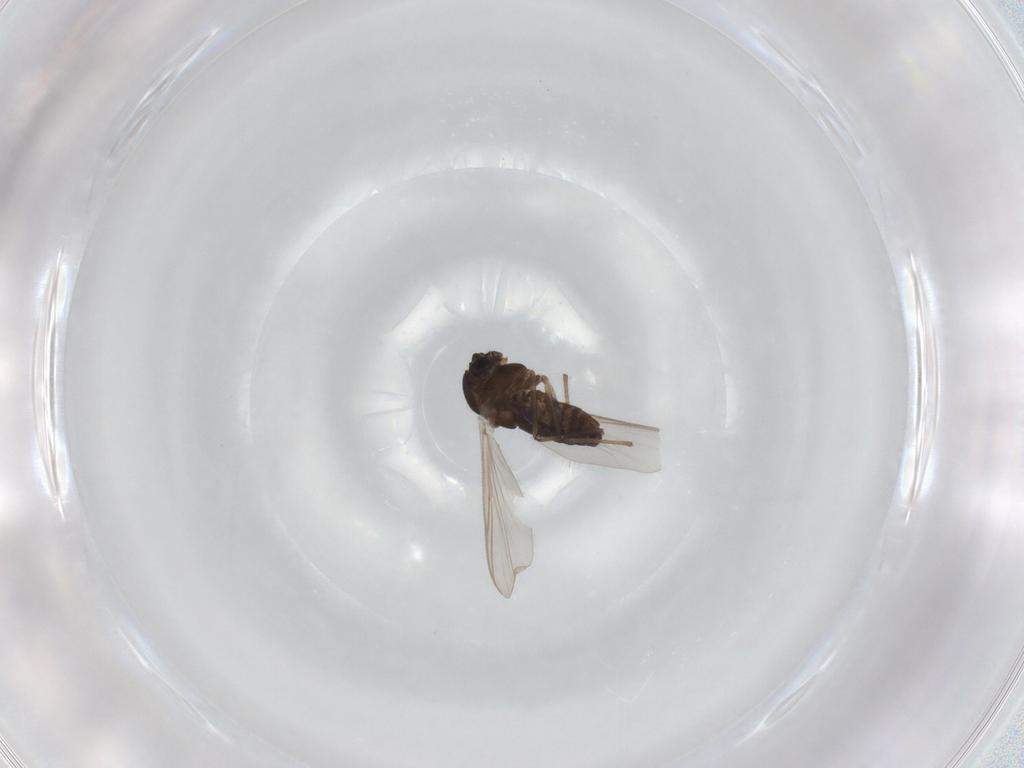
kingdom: Animalia
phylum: Arthropoda
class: Insecta
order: Diptera
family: Chironomidae
